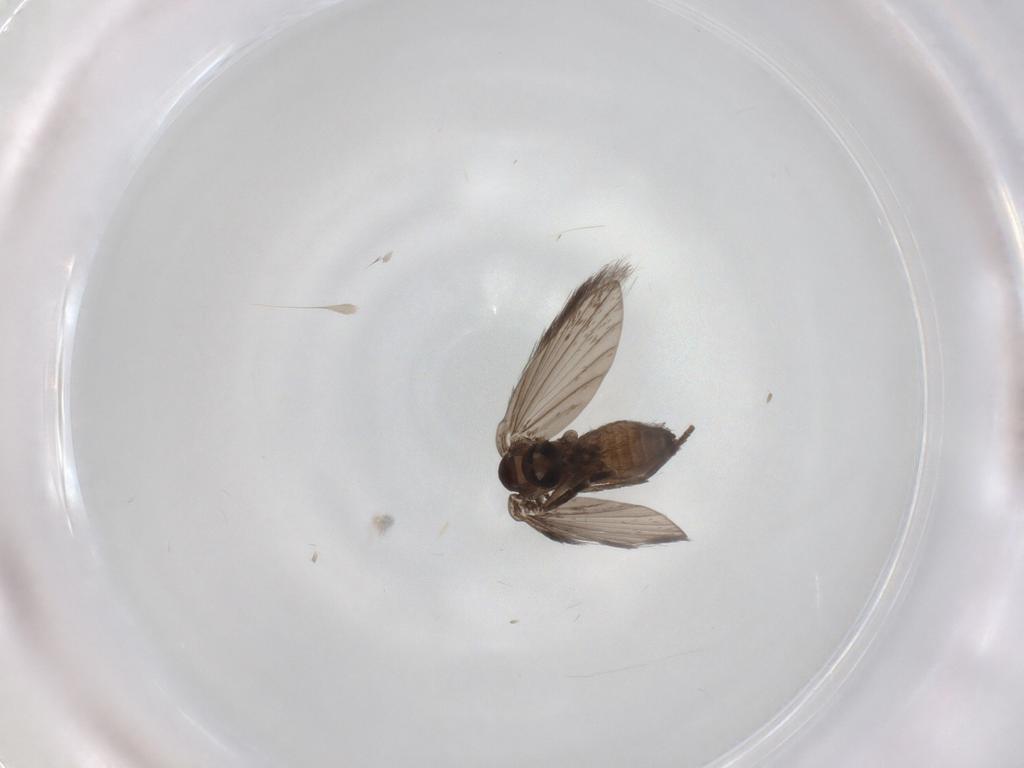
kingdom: Animalia
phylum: Arthropoda
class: Insecta
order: Diptera
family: Psychodidae
